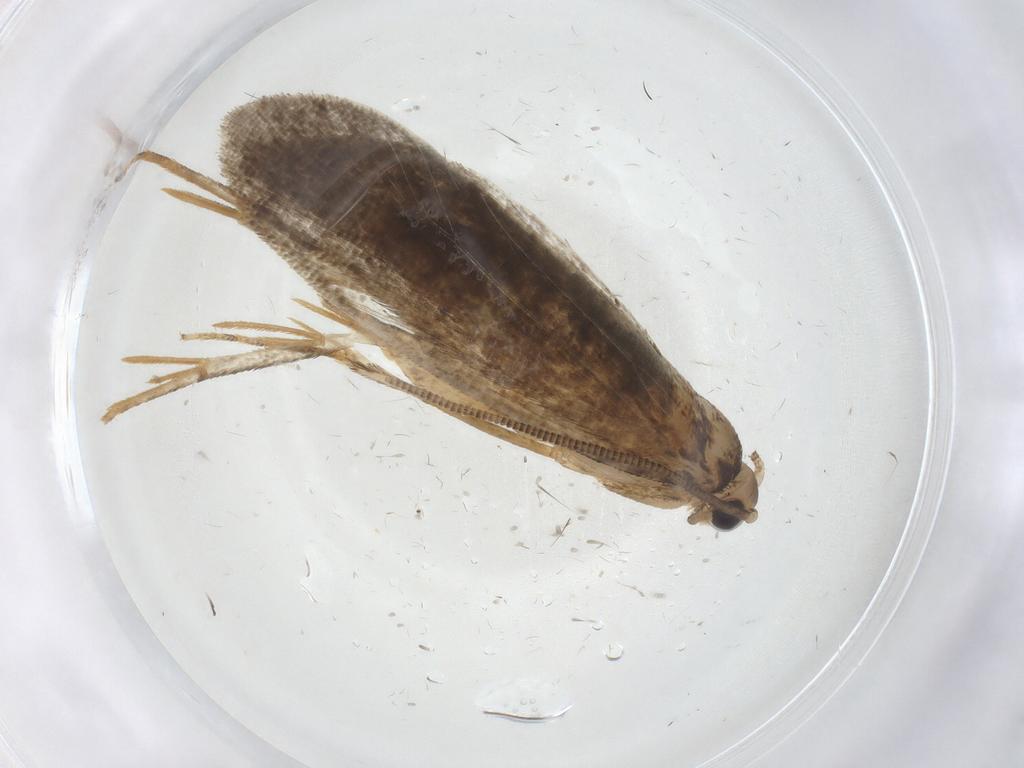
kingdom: Animalia
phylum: Arthropoda
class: Insecta
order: Lepidoptera
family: Tineidae
